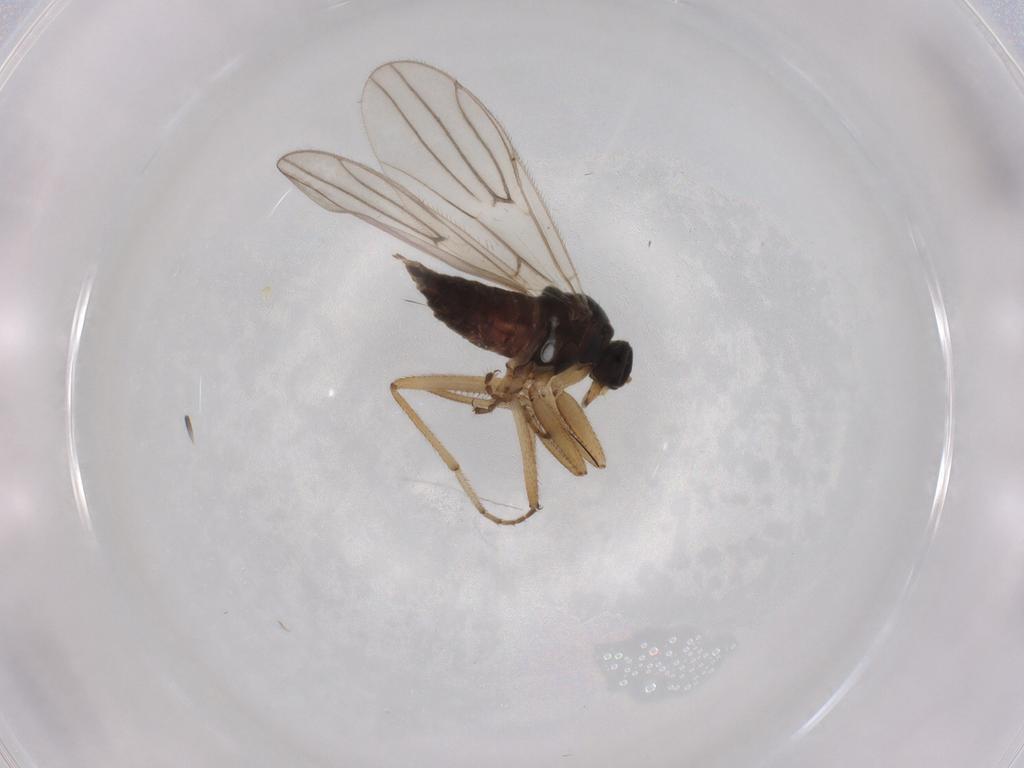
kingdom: Animalia
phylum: Arthropoda
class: Insecta
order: Diptera
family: Hybotidae
